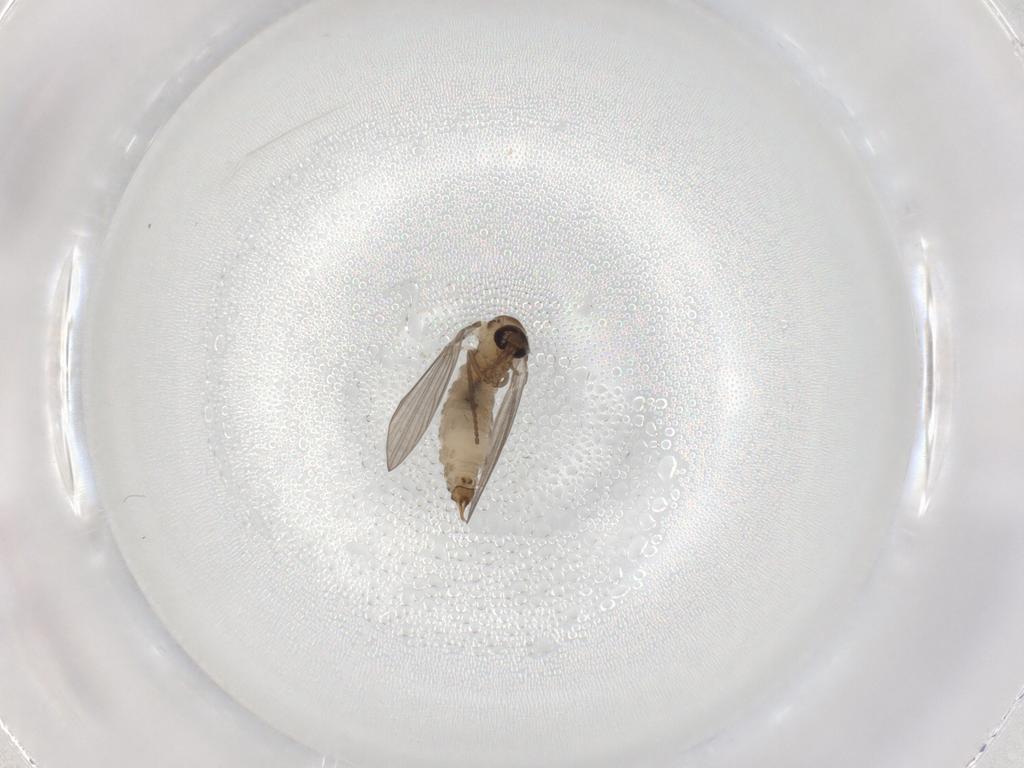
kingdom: Animalia
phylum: Arthropoda
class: Insecta
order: Diptera
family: Psychodidae
